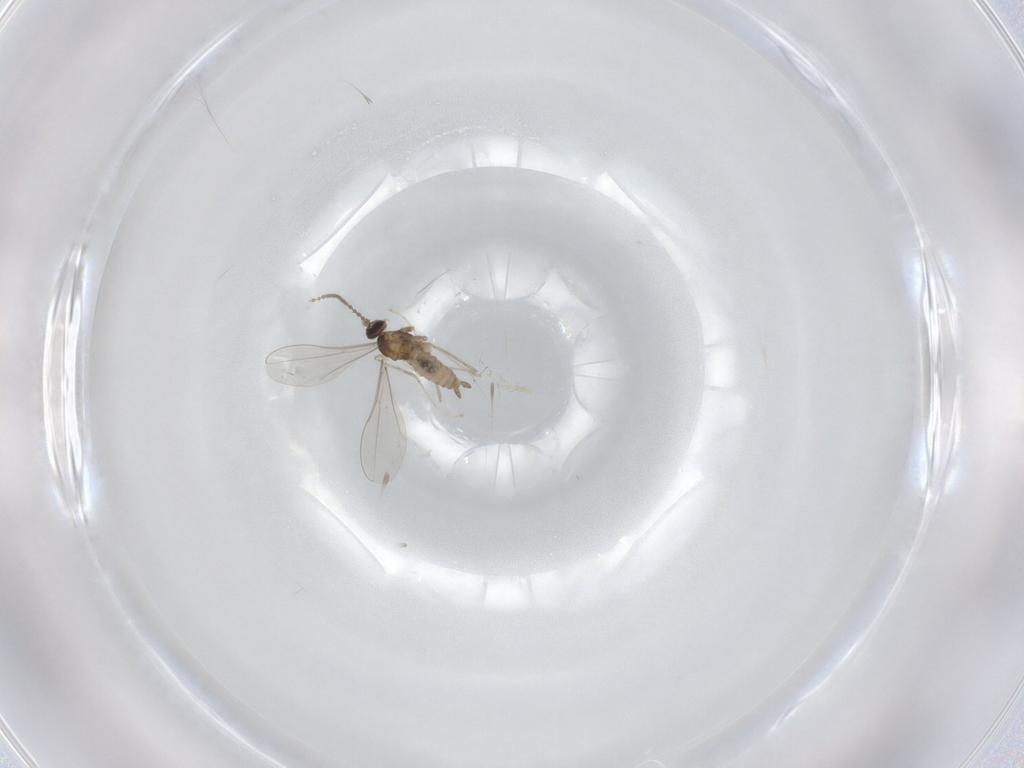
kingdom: Animalia
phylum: Arthropoda
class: Insecta
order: Diptera
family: Cecidomyiidae
